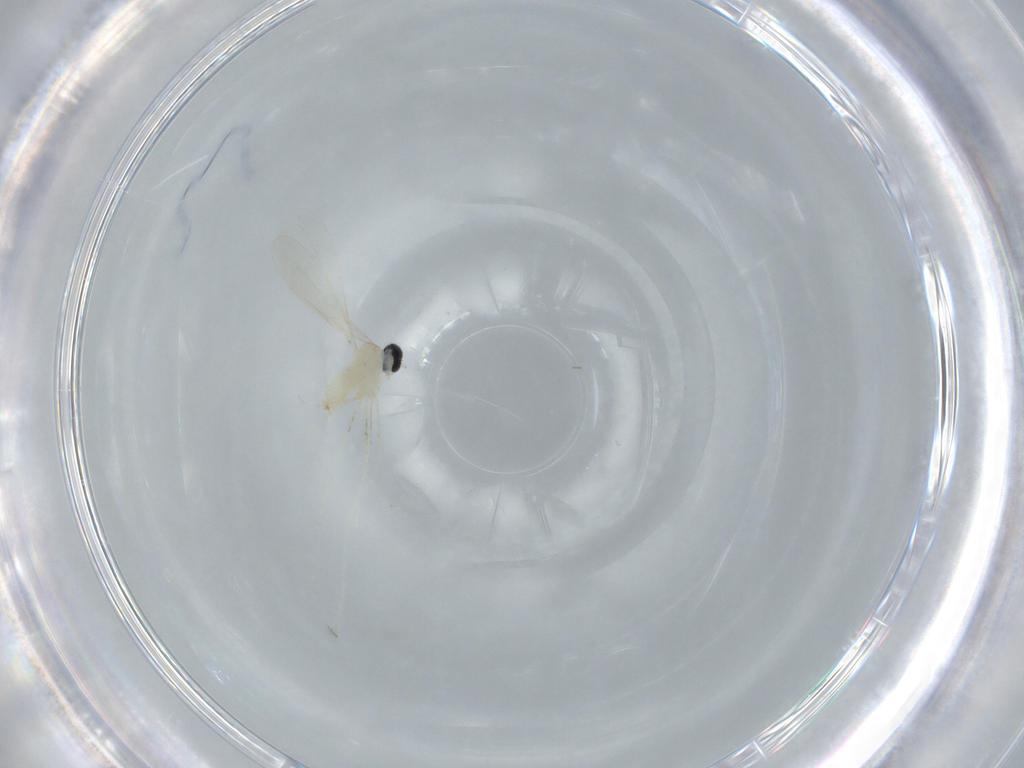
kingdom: Animalia
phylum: Arthropoda
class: Insecta
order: Diptera
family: Cecidomyiidae
